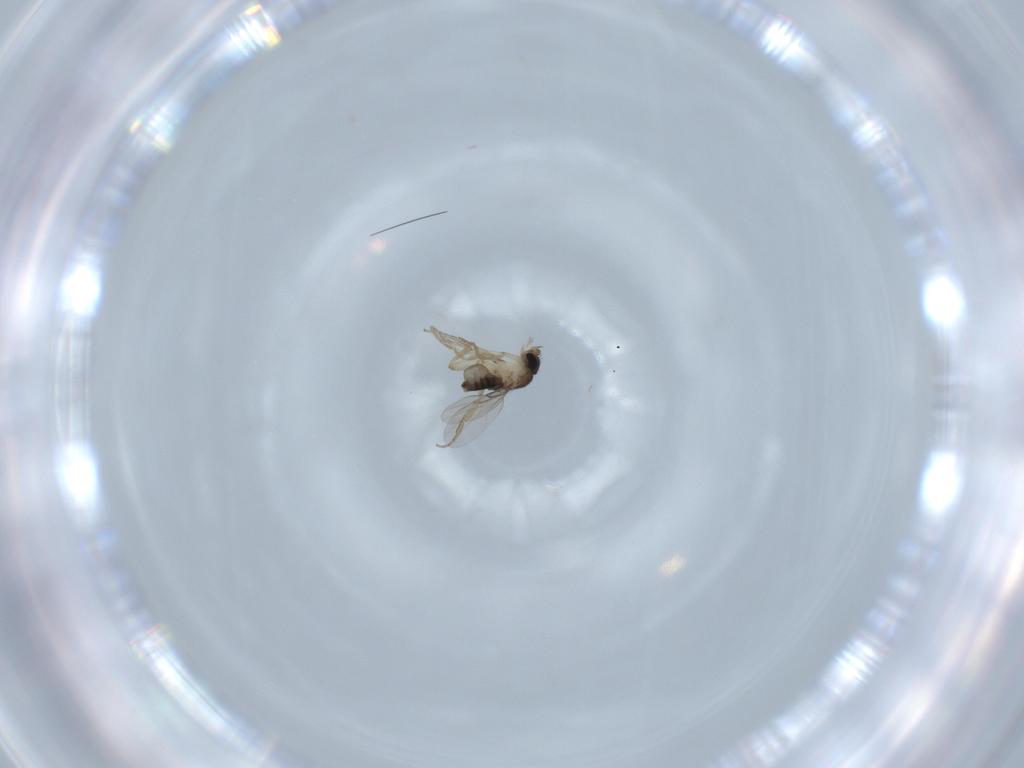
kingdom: Animalia
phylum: Arthropoda
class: Insecta
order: Diptera
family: Phoridae
